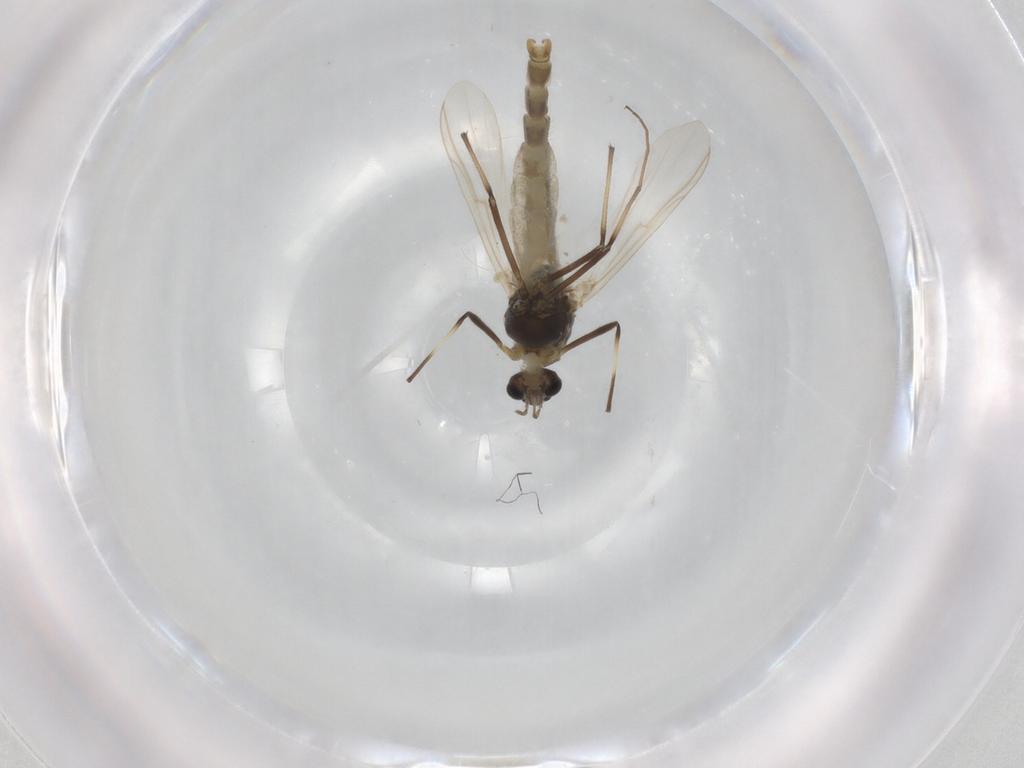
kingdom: Animalia
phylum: Arthropoda
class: Insecta
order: Diptera
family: Chironomidae
